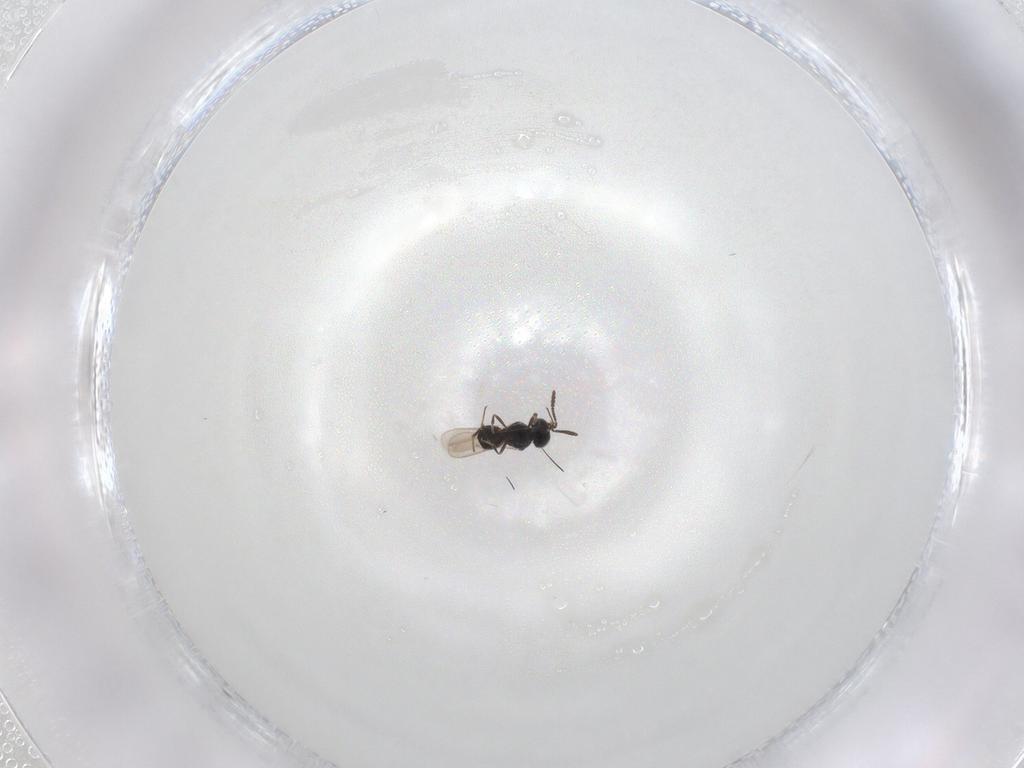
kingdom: Animalia
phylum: Arthropoda
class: Insecta
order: Hymenoptera
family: Scelionidae
